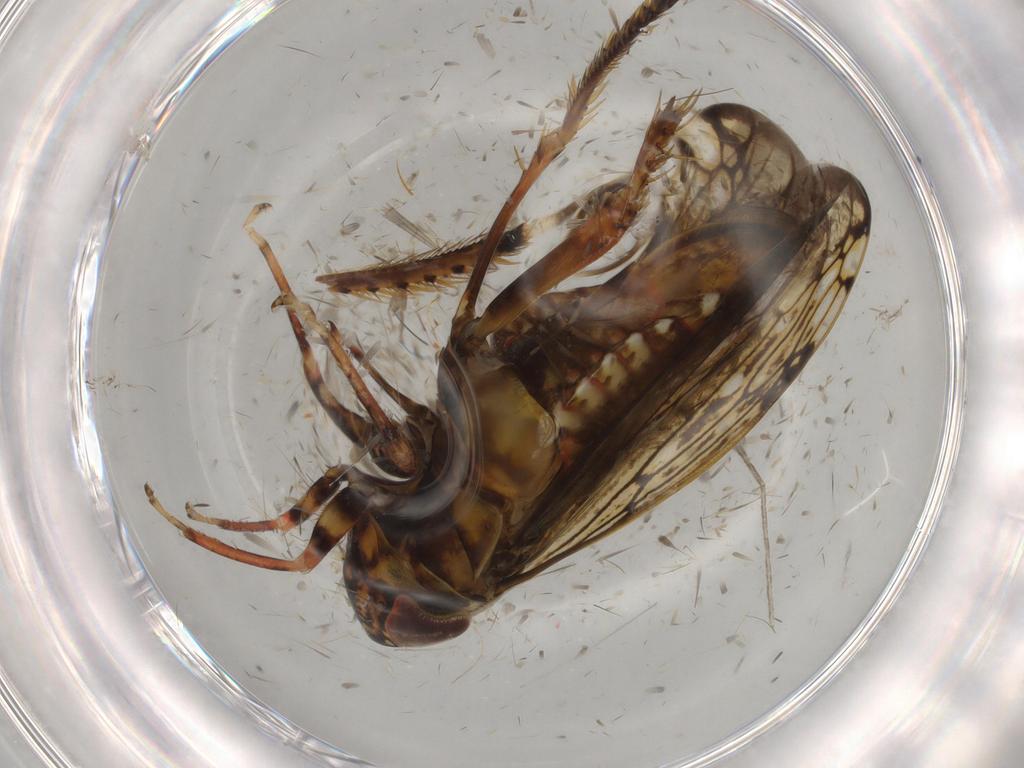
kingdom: Animalia
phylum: Arthropoda
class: Insecta
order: Hemiptera
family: Cicadellidae
